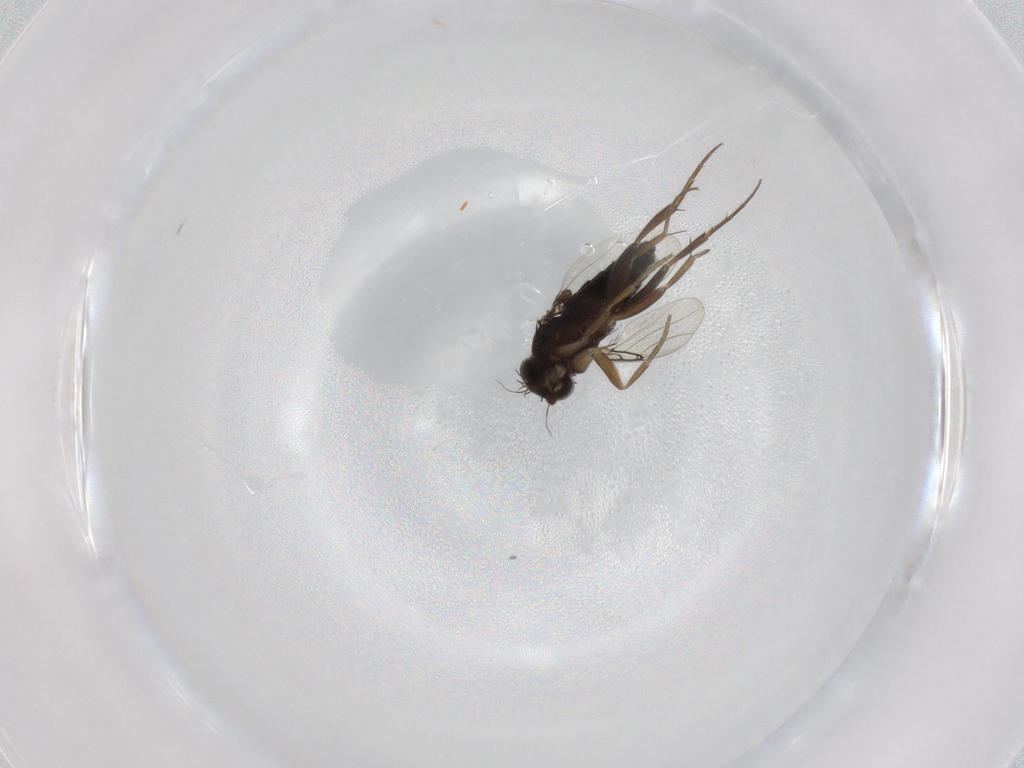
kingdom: Animalia
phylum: Arthropoda
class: Insecta
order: Diptera
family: Phoridae
